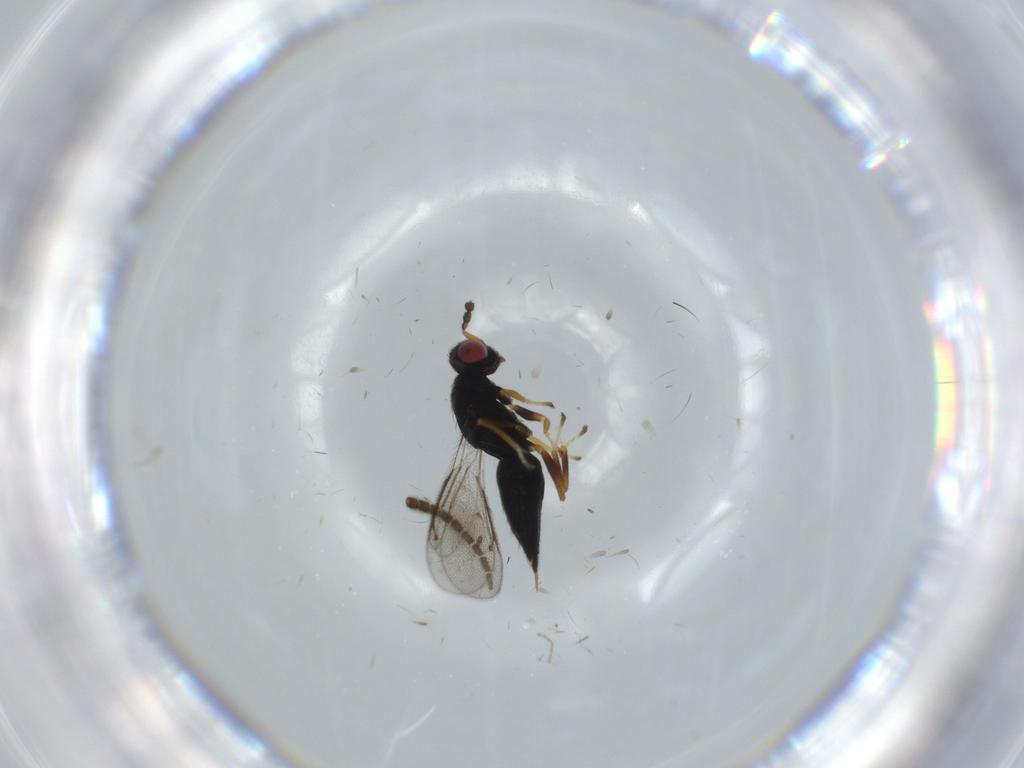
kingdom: Animalia
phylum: Arthropoda
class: Insecta
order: Hymenoptera
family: Eulophidae
